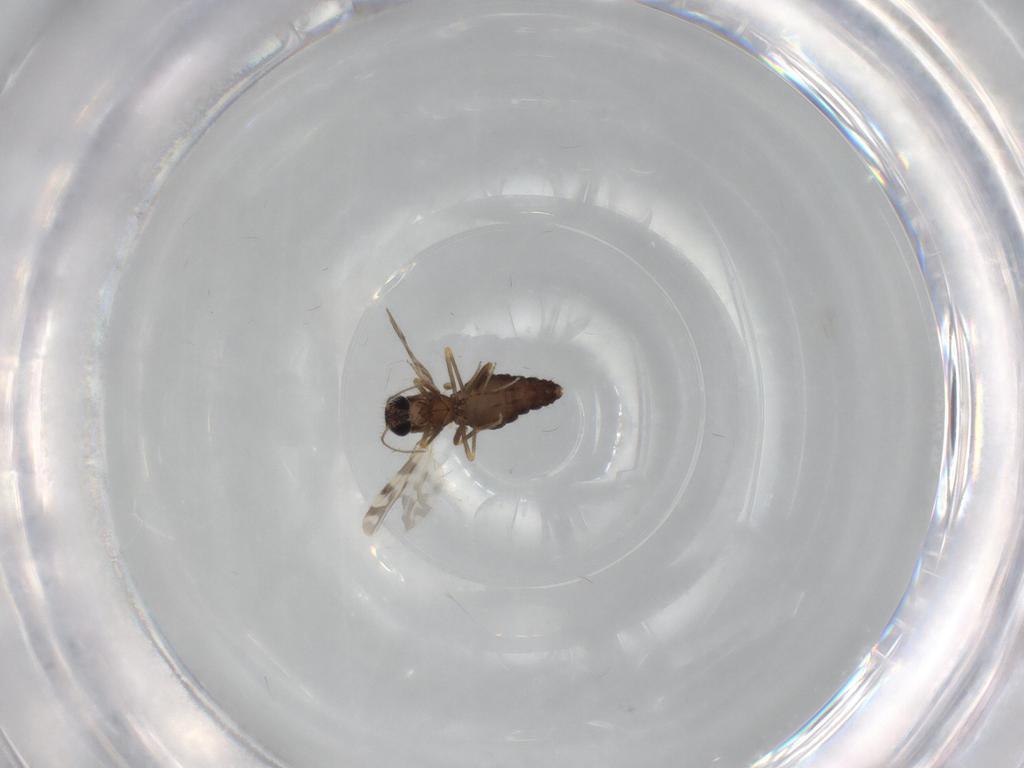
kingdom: Animalia
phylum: Arthropoda
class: Insecta
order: Diptera
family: Ceratopogonidae
